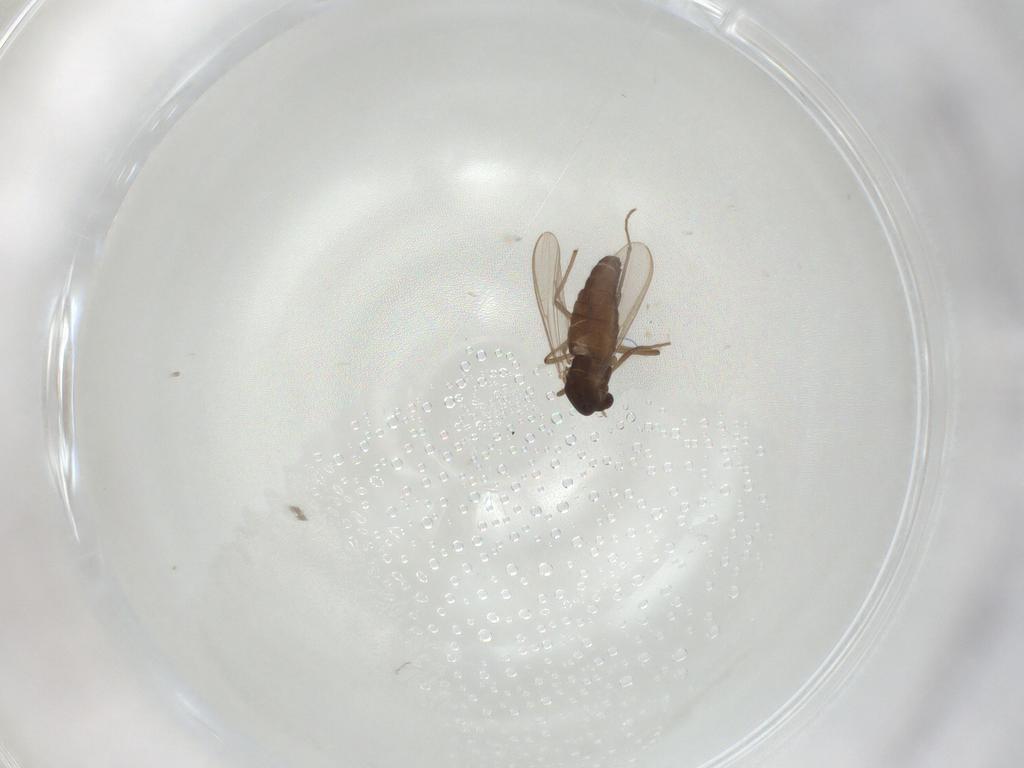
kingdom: Animalia
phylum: Arthropoda
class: Insecta
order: Diptera
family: Chironomidae
